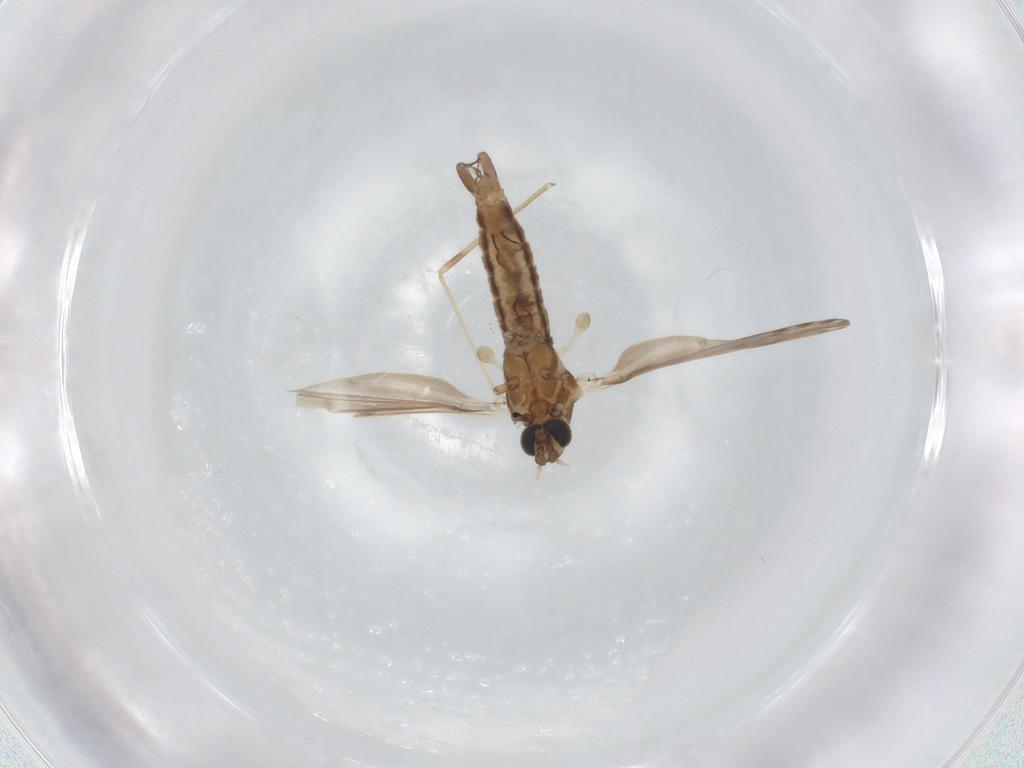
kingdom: Animalia
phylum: Arthropoda
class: Insecta
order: Diptera
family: Limoniidae
